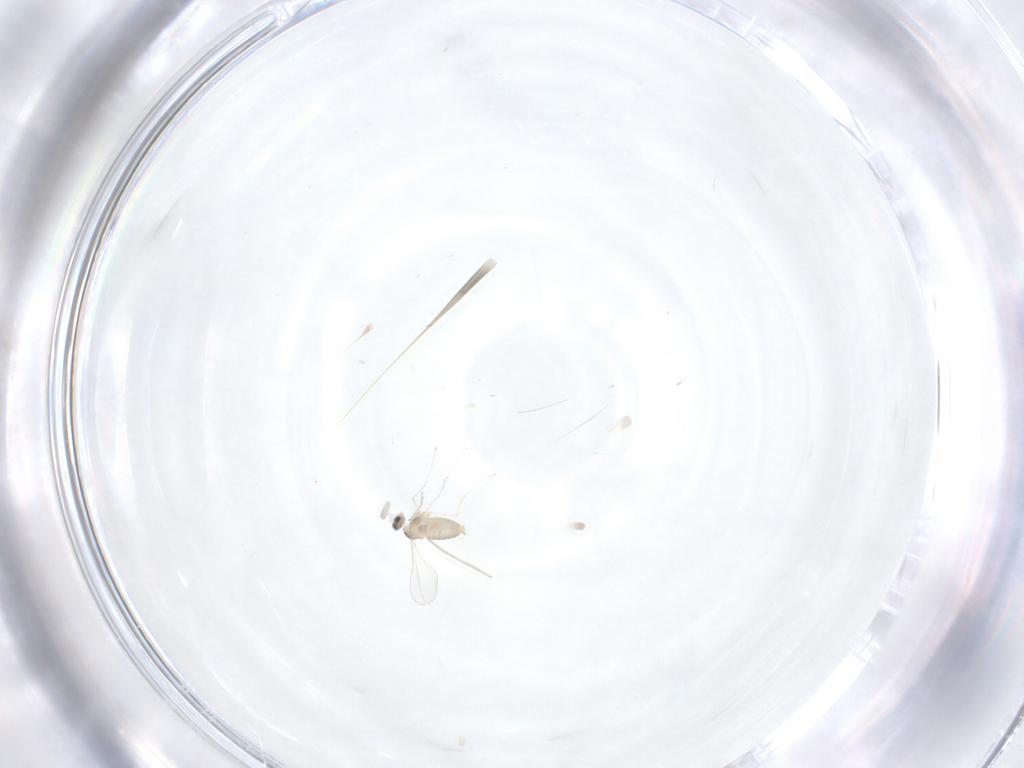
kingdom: Animalia
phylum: Arthropoda
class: Insecta
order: Diptera
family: Cecidomyiidae
